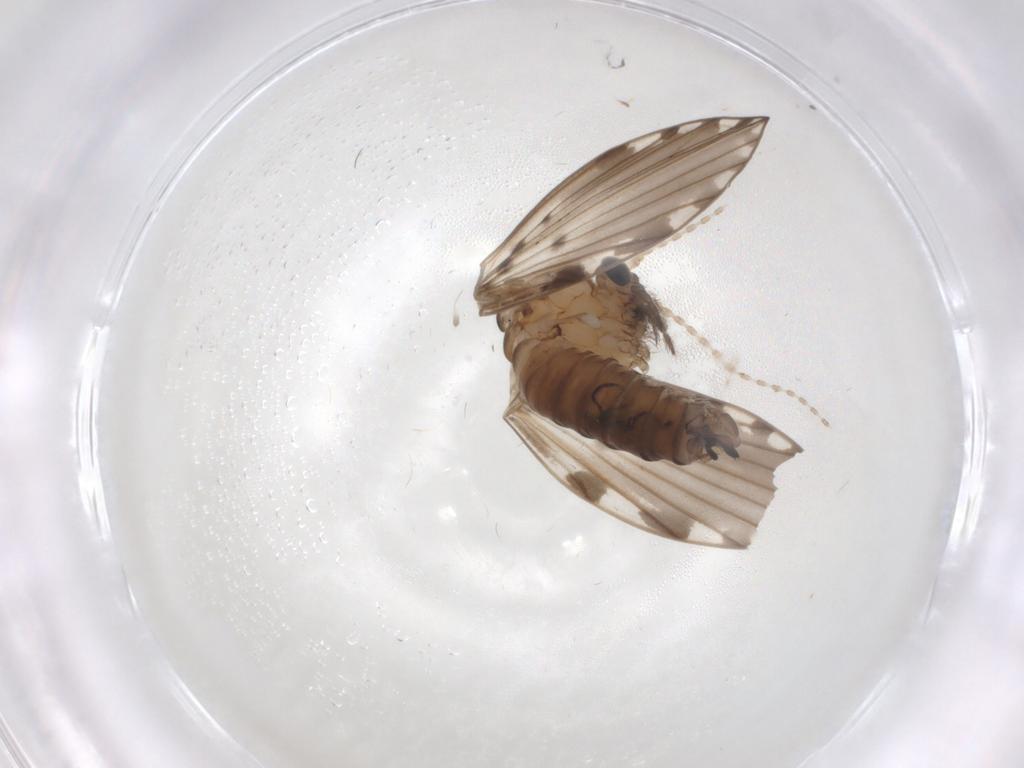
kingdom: Animalia
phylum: Arthropoda
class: Insecta
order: Diptera
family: Psychodidae
